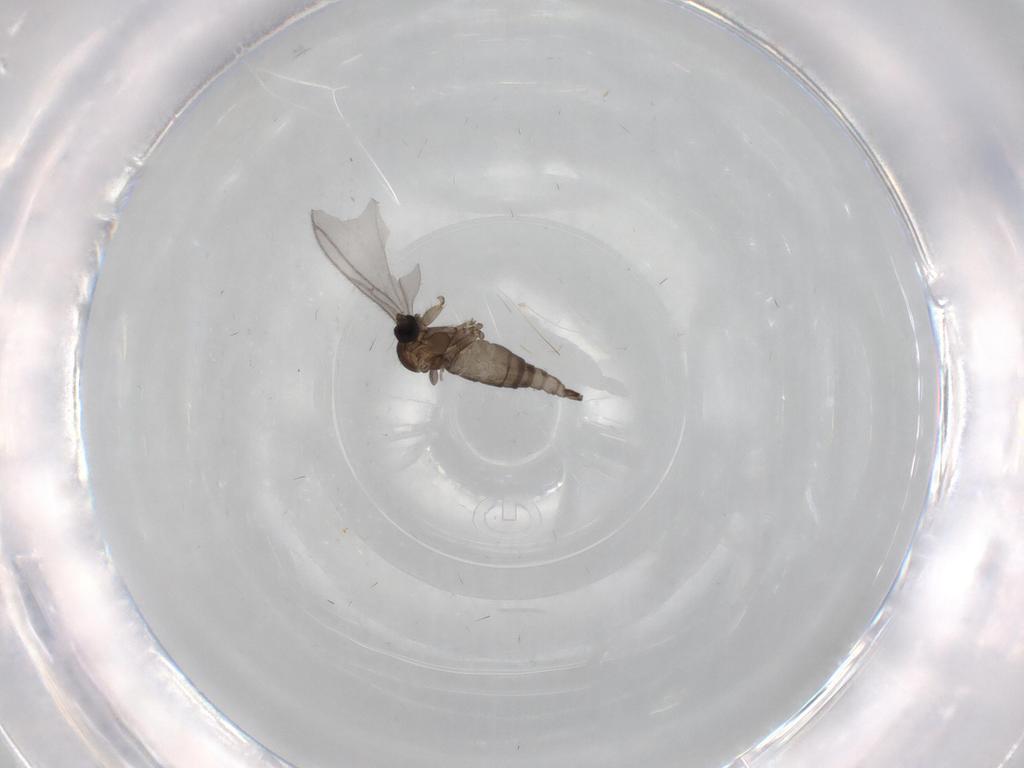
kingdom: Animalia
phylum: Arthropoda
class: Insecta
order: Diptera
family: Sciaridae
